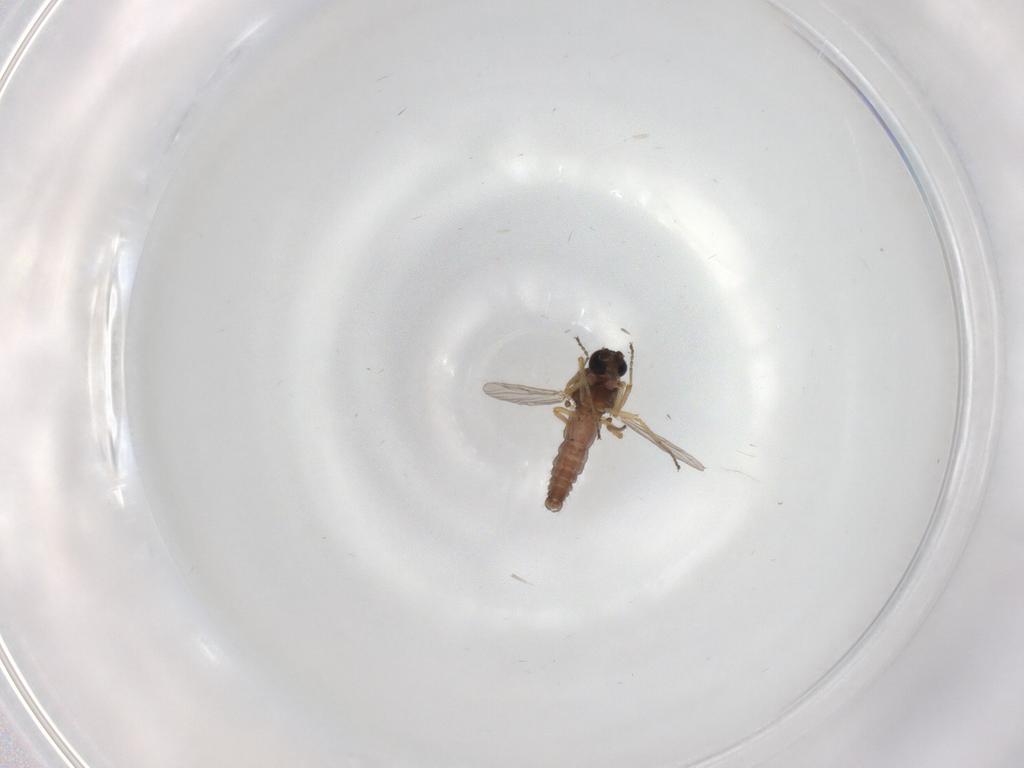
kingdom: Animalia
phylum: Arthropoda
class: Insecta
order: Diptera
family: Ceratopogonidae
